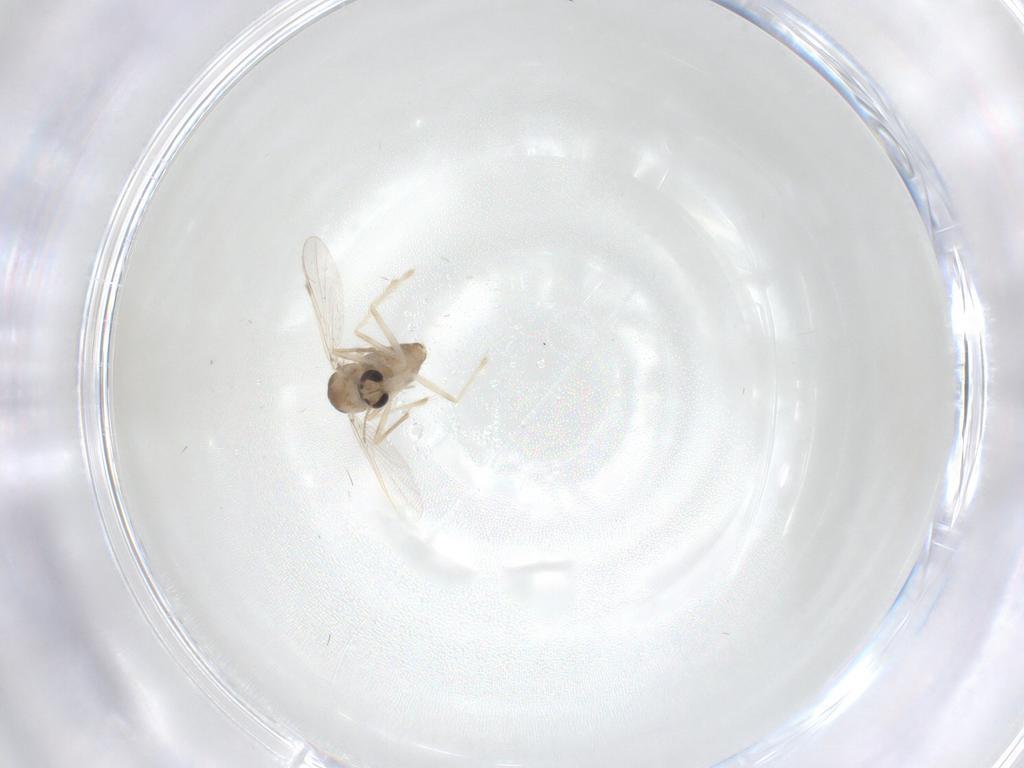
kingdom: Animalia
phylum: Arthropoda
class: Insecta
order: Diptera
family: Chironomidae
